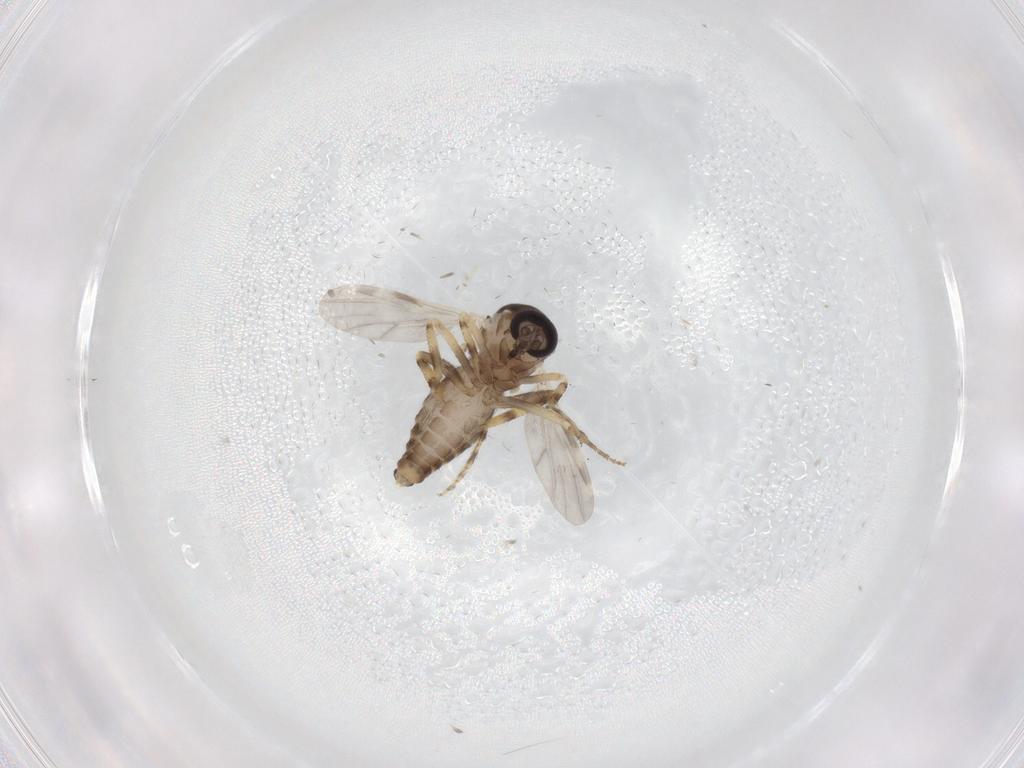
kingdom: Animalia
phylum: Arthropoda
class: Insecta
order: Diptera
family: Ceratopogonidae
